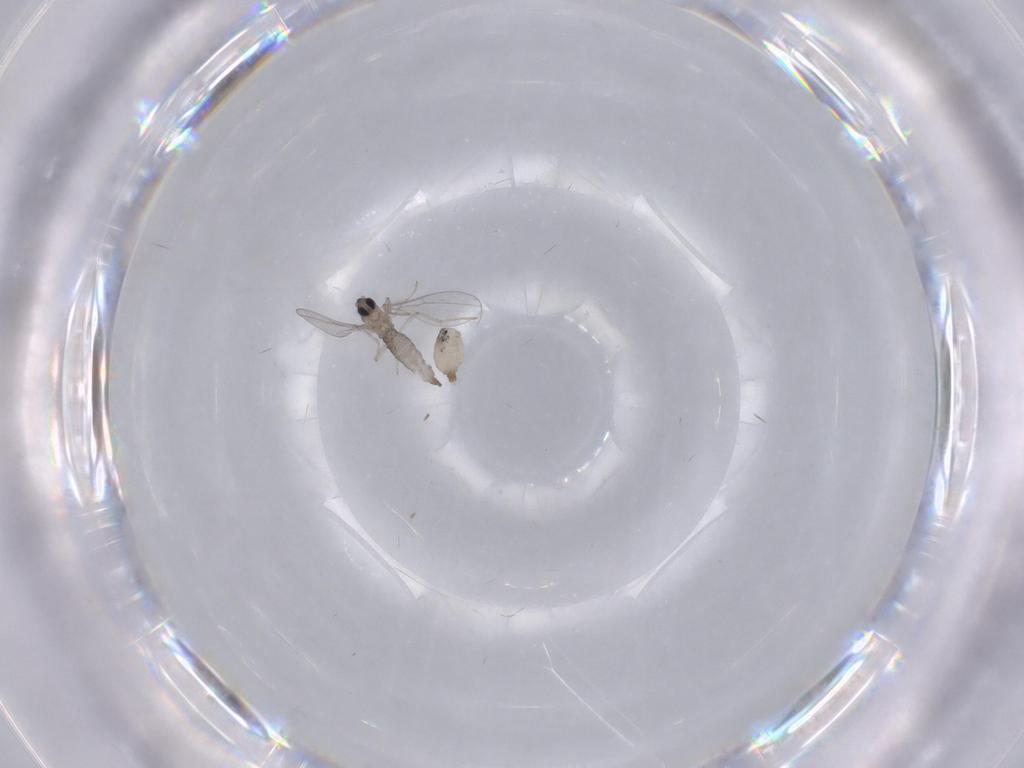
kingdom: Animalia
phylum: Arthropoda
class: Insecta
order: Diptera
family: Cecidomyiidae
